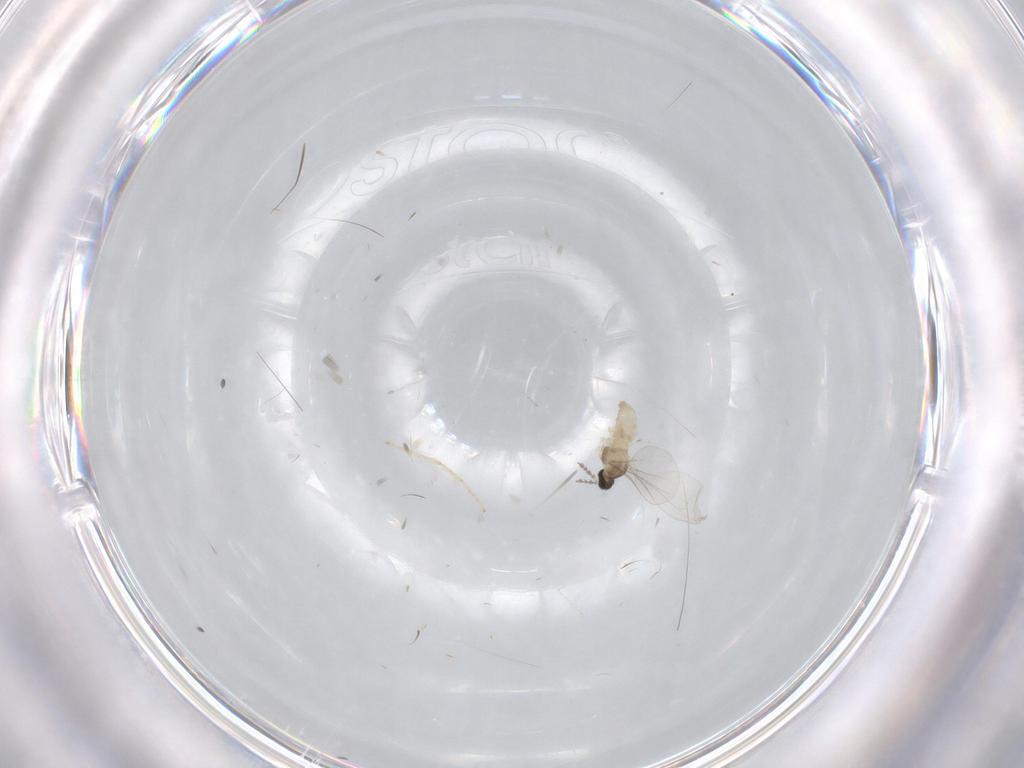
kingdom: Animalia
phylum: Arthropoda
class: Insecta
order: Diptera
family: Cecidomyiidae
